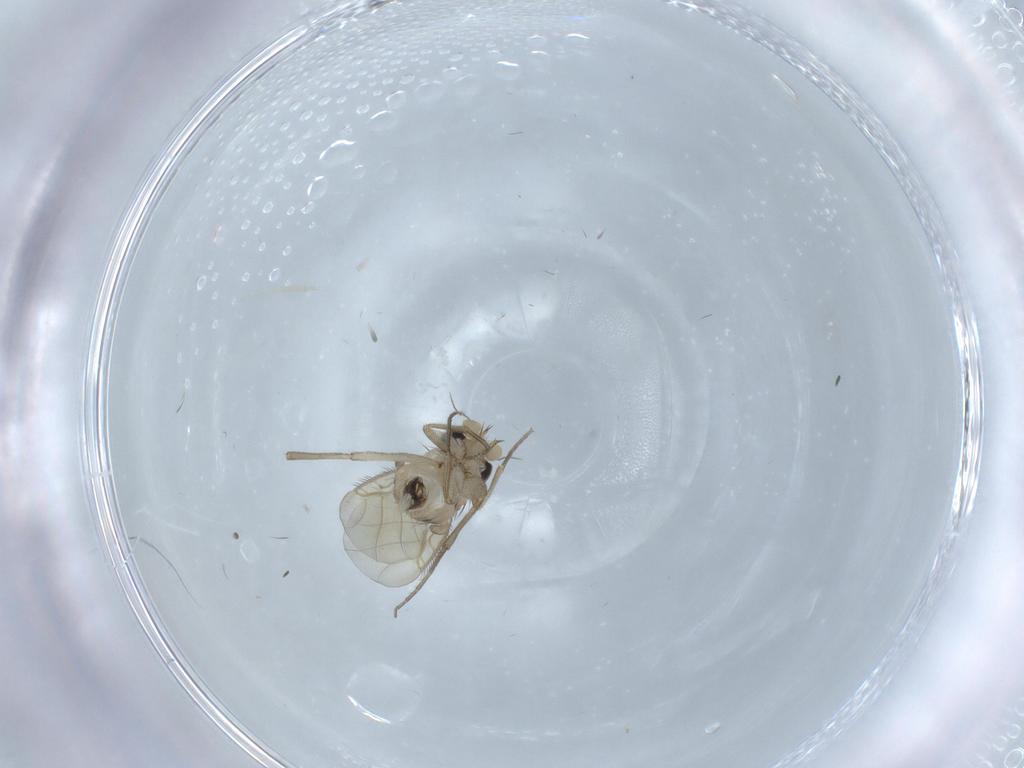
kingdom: Animalia
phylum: Arthropoda
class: Insecta
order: Diptera
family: Phoridae
